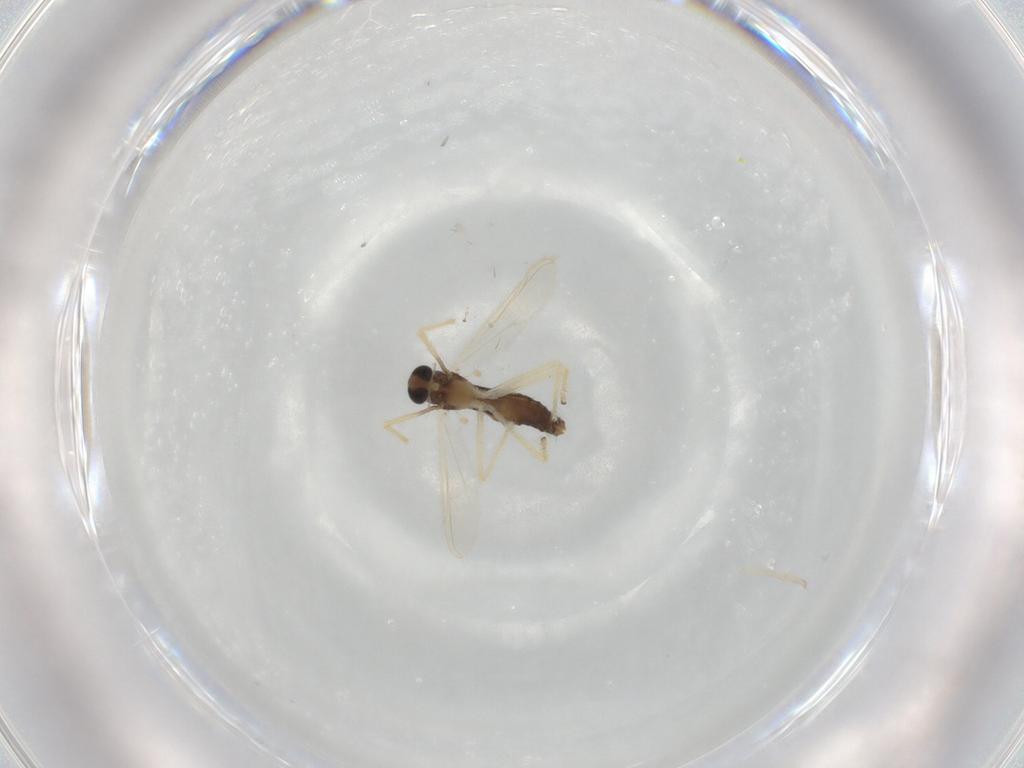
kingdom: Animalia
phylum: Arthropoda
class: Insecta
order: Diptera
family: Chironomidae
